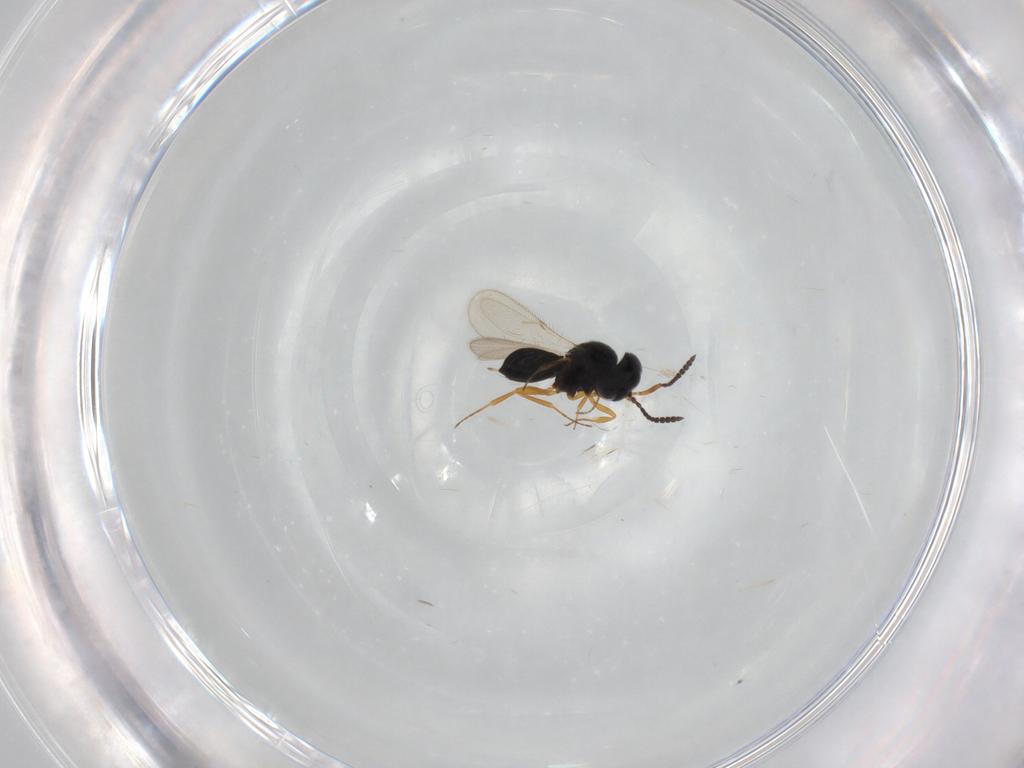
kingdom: Animalia
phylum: Arthropoda
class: Insecta
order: Hymenoptera
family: Scelionidae
